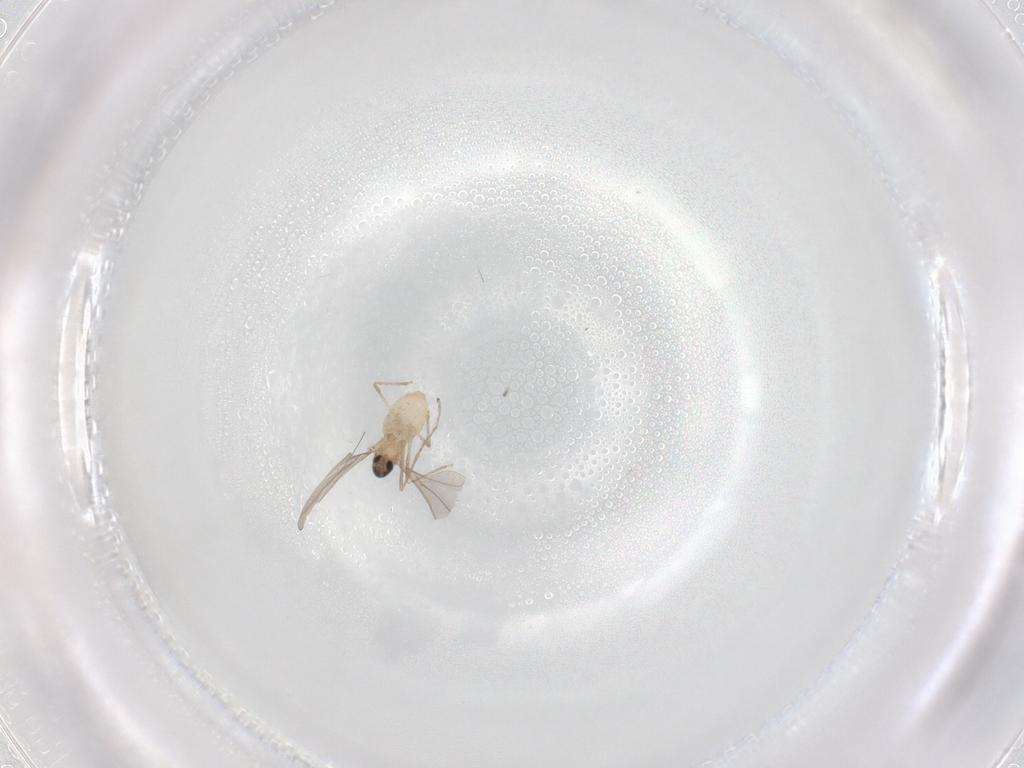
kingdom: Animalia
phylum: Arthropoda
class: Insecta
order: Diptera
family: Cecidomyiidae
